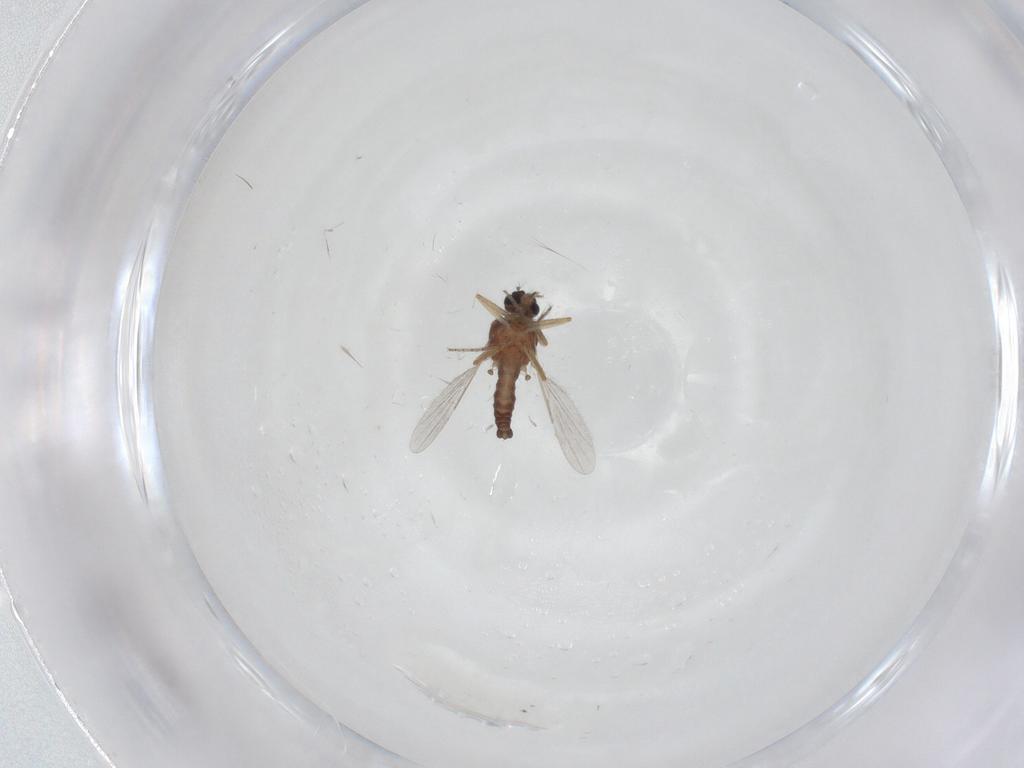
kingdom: Animalia
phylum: Arthropoda
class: Insecta
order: Diptera
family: Ceratopogonidae
